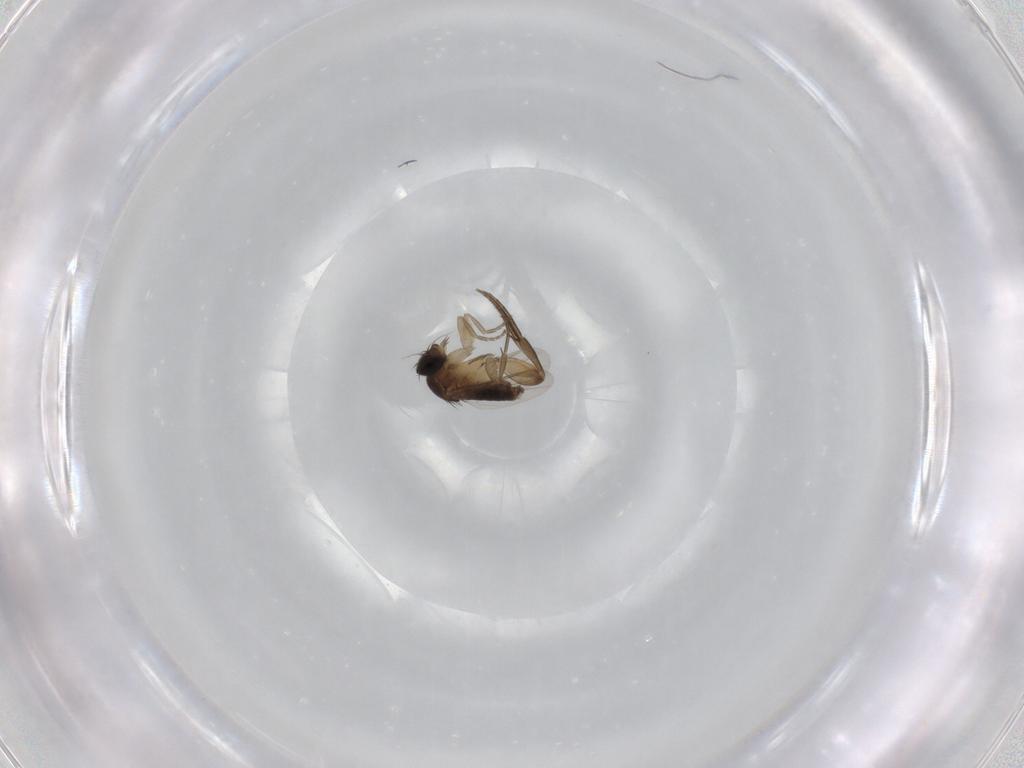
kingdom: Animalia
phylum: Arthropoda
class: Insecta
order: Diptera
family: Phoridae
